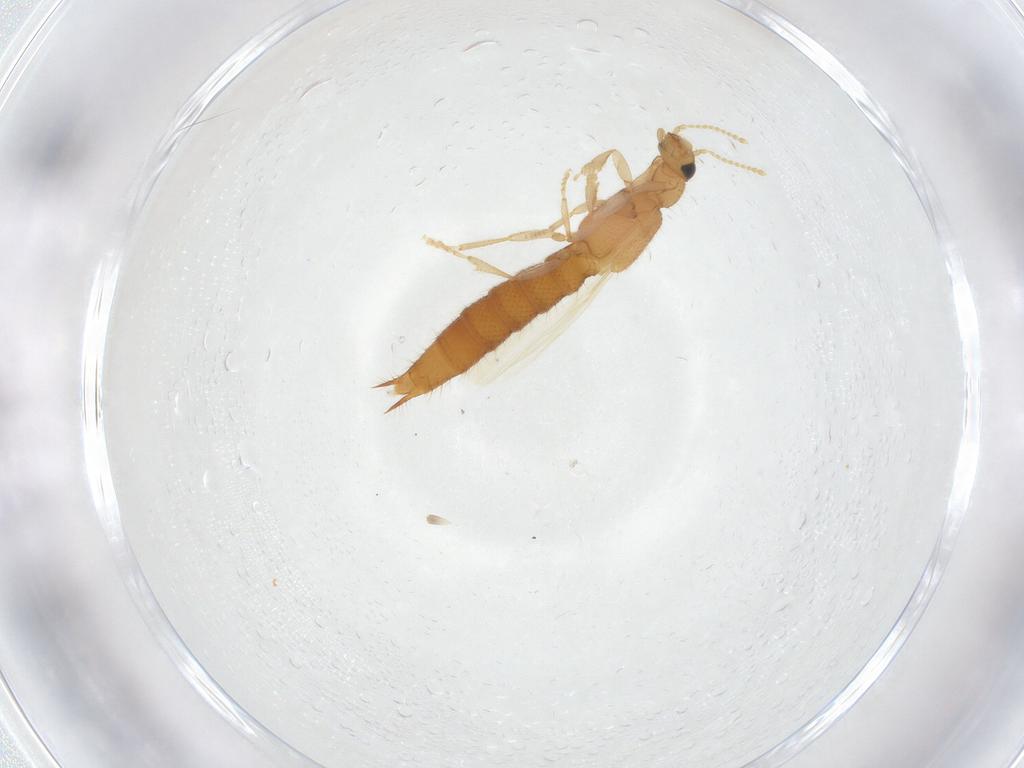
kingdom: Animalia
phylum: Arthropoda
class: Insecta
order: Coleoptera
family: Staphylinidae
